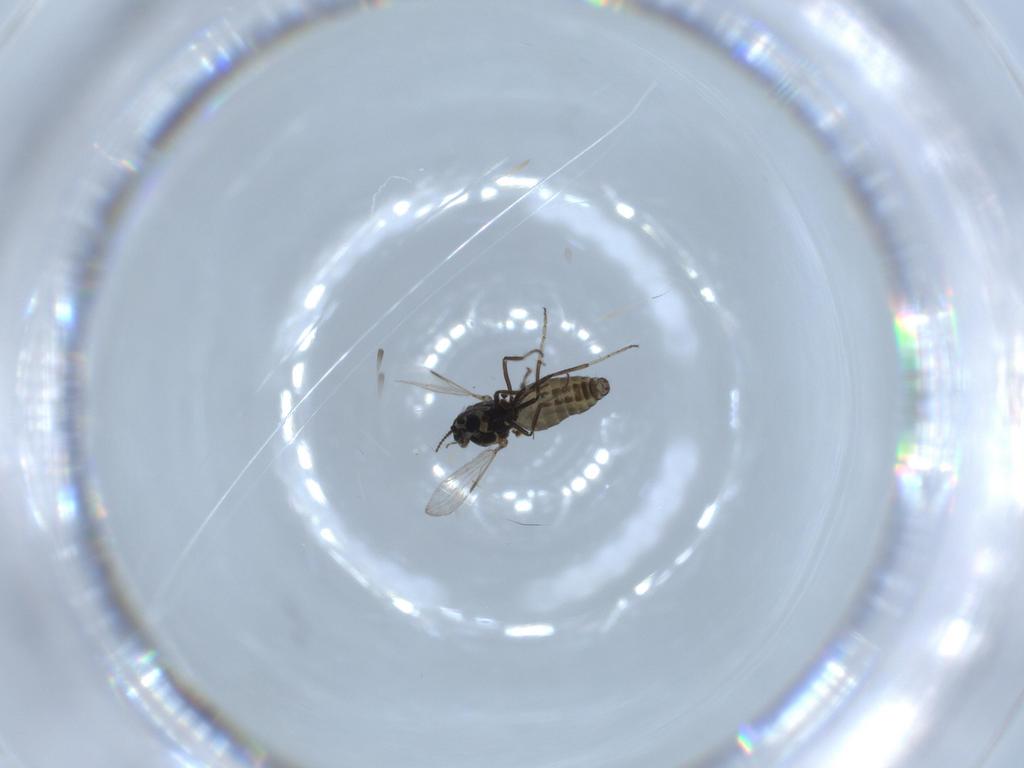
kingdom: Animalia
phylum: Arthropoda
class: Insecta
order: Diptera
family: Ceratopogonidae
